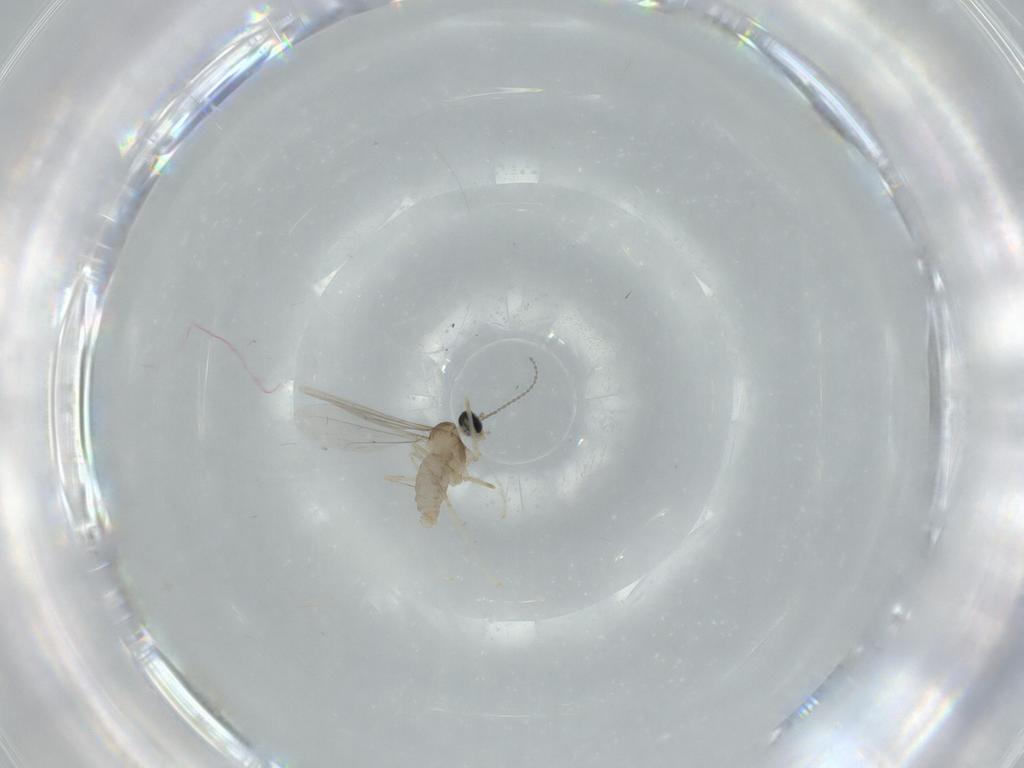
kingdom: Animalia
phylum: Arthropoda
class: Insecta
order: Diptera
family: Cecidomyiidae
